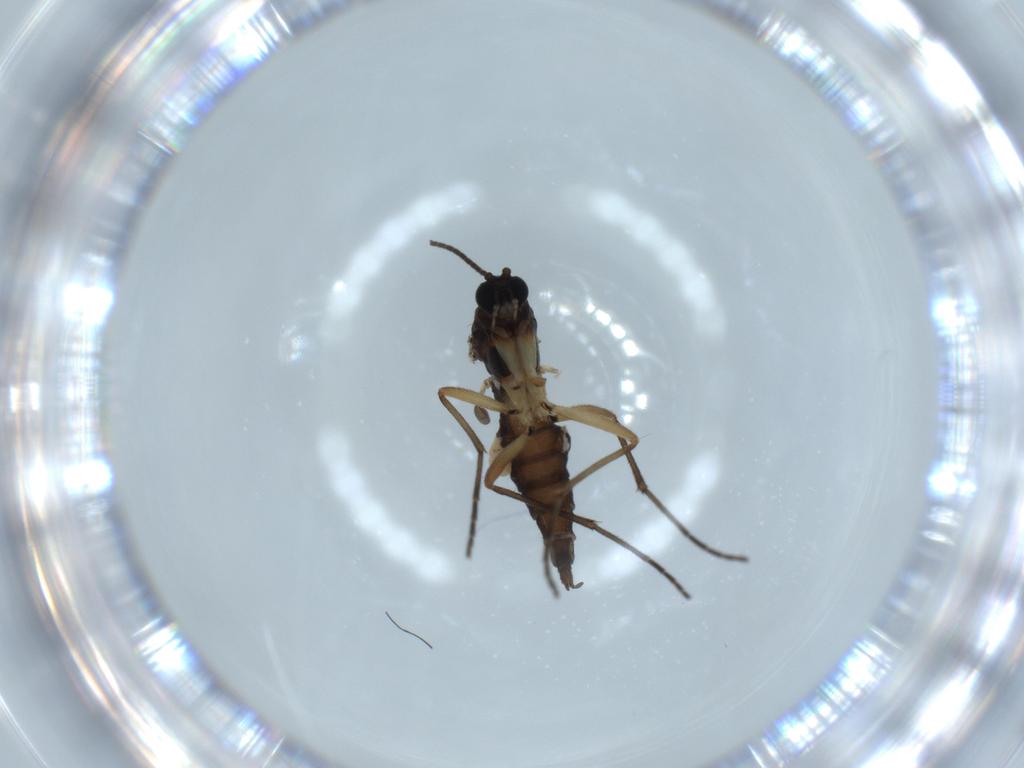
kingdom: Animalia
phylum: Arthropoda
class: Insecta
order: Diptera
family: Sciaridae
